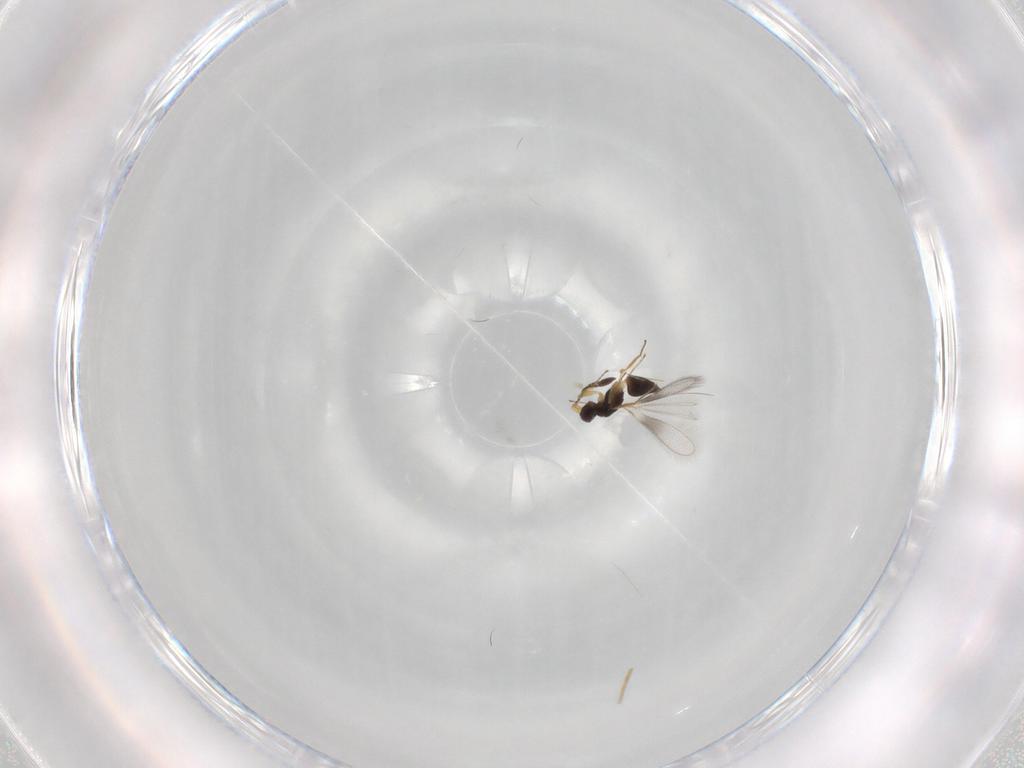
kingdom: Animalia
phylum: Arthropoda
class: Insecta
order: Hymenoptera
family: Mymaridae
